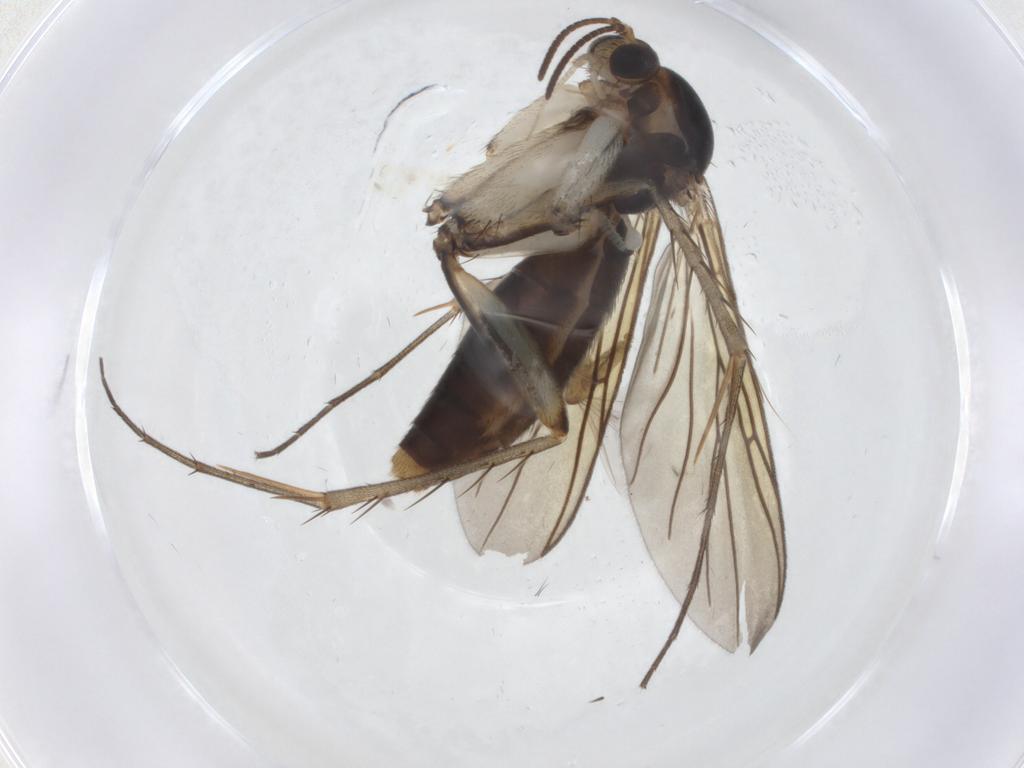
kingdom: Animalia
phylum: Arthropoda
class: Insecta
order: Diptera
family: Cecidomyiidae
